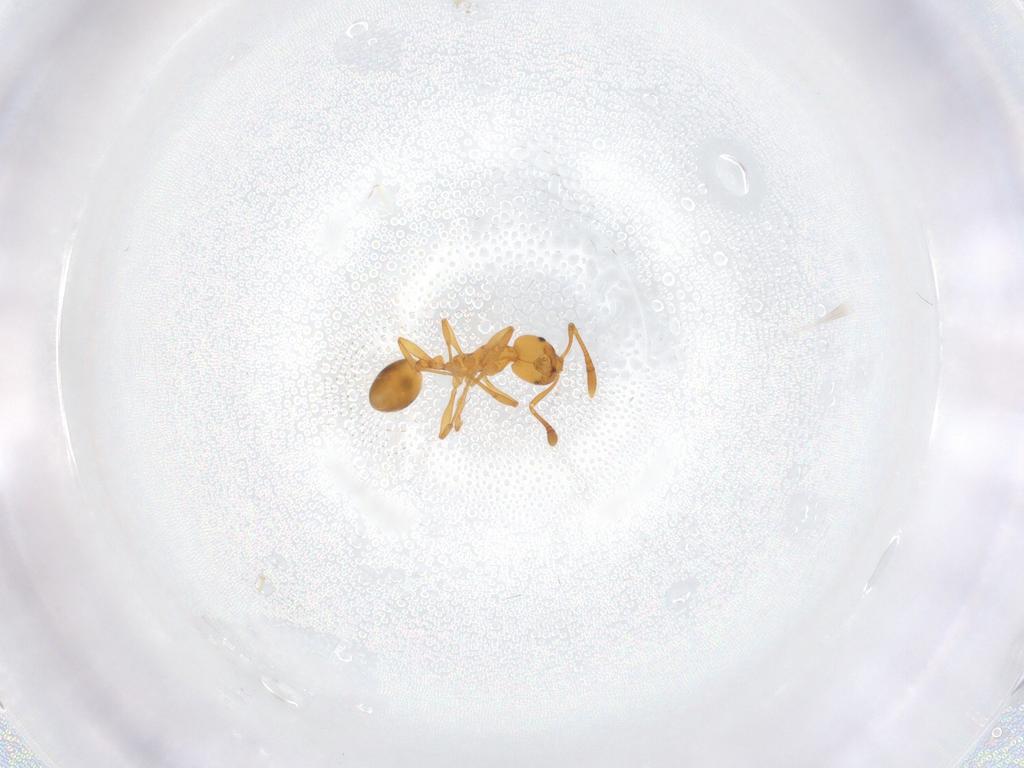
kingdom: Animalia
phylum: Arthropoda
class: Insecta
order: Hymenoptera
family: Formicidae
